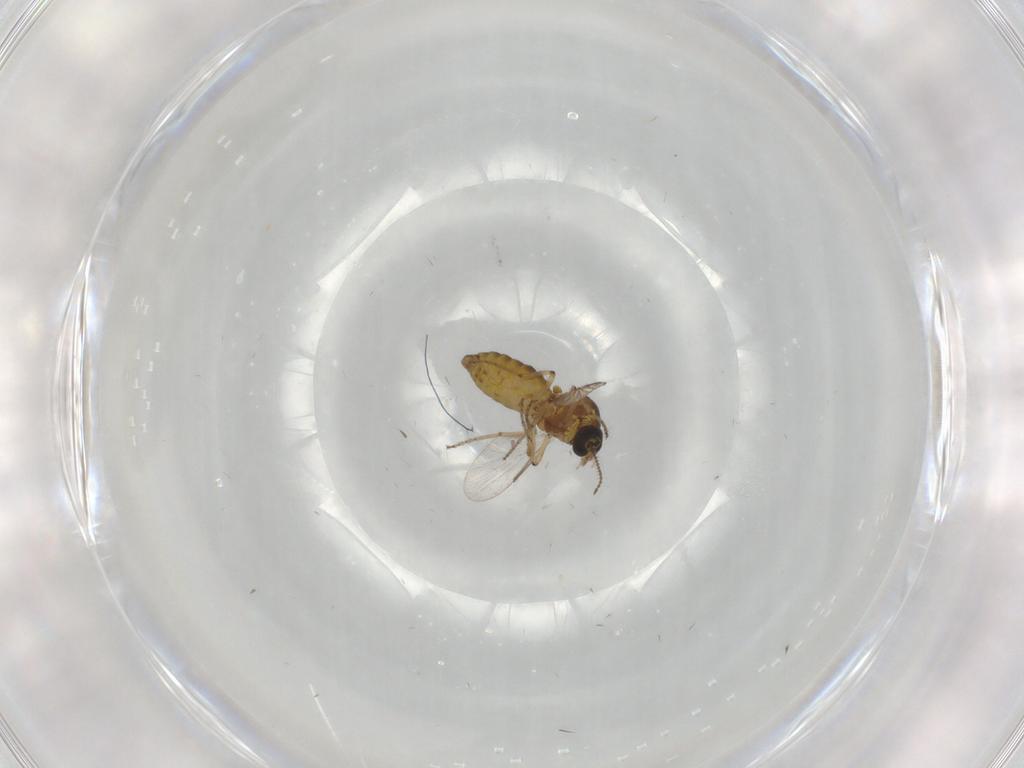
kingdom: Animalia
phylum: Arthropoda
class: Insecta
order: Diptera
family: Ceratopogonidae
